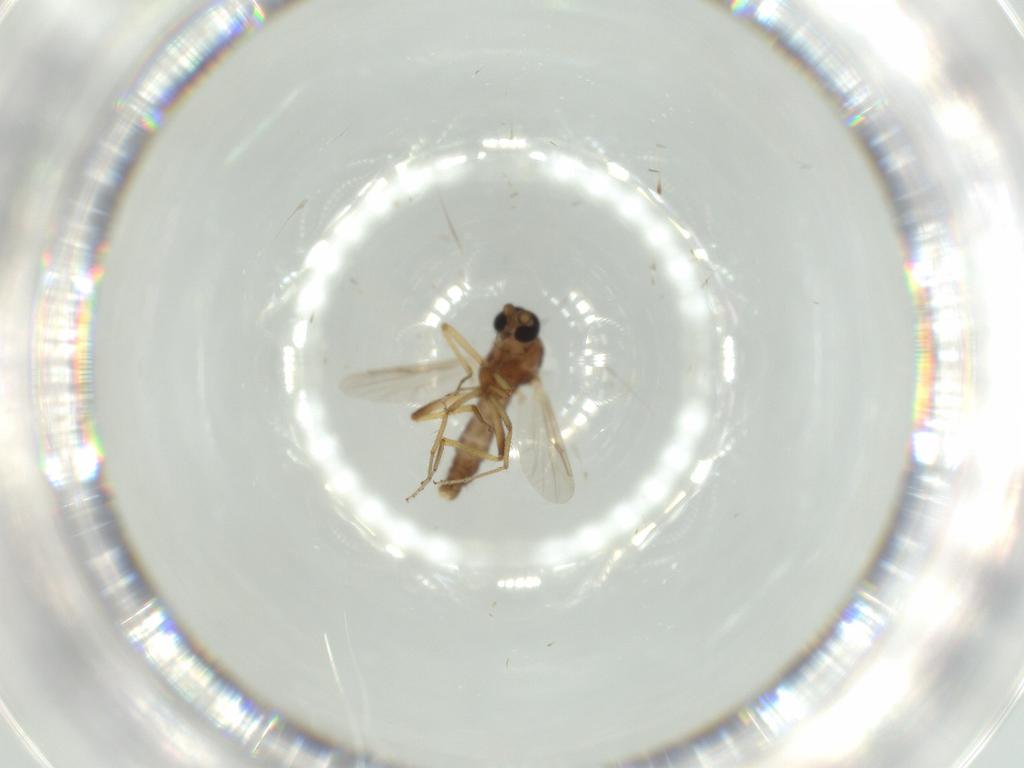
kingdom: Animalia
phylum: Arthropoda
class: Insecta
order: Diptera
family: Ceratopogonidae
